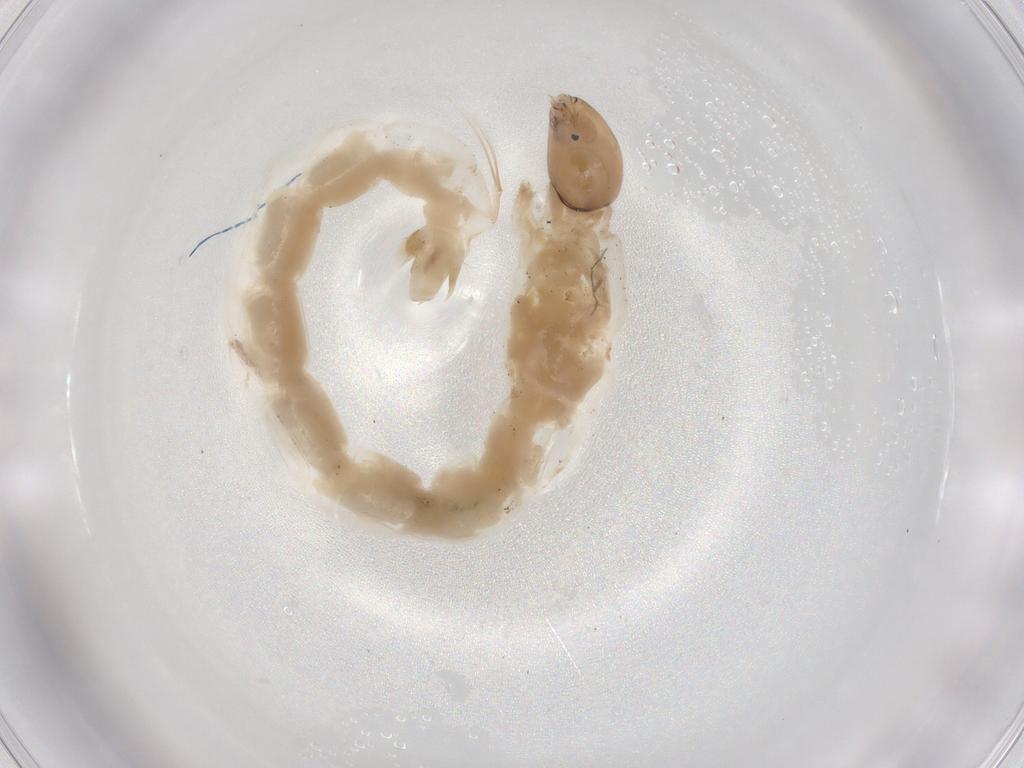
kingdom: Animalia
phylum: Arthropoda
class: Insecta
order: Diptera
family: Chironomidae
